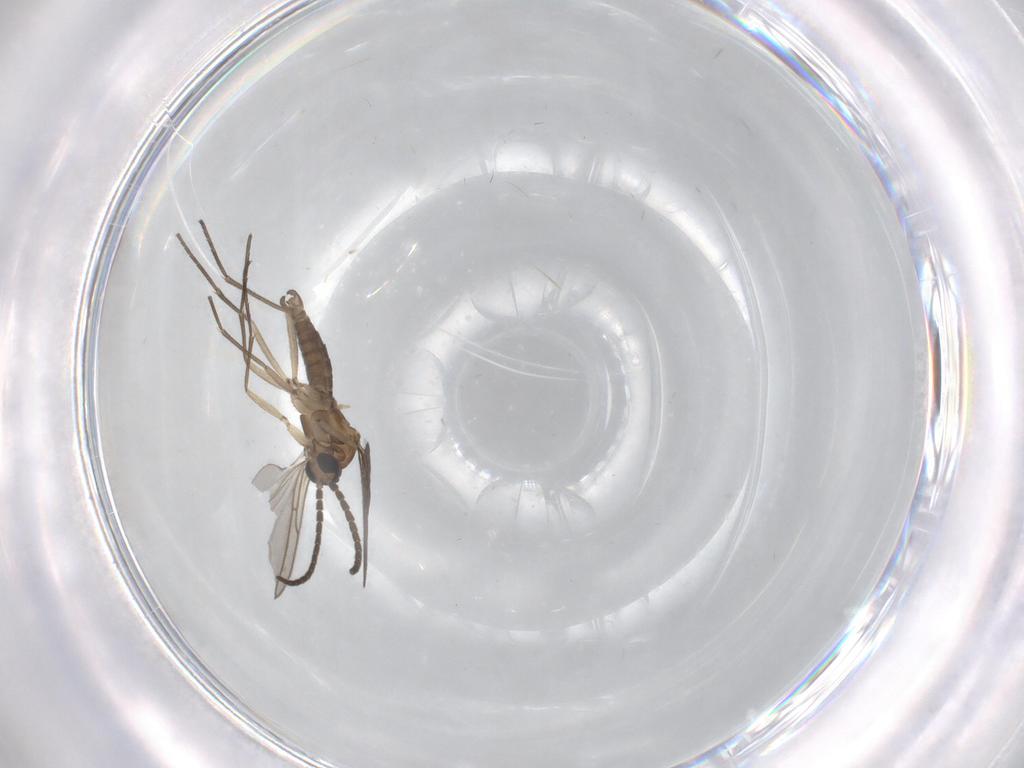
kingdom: Animalia
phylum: Arthropoda
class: Insecta
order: Diptera
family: Sciaridae
